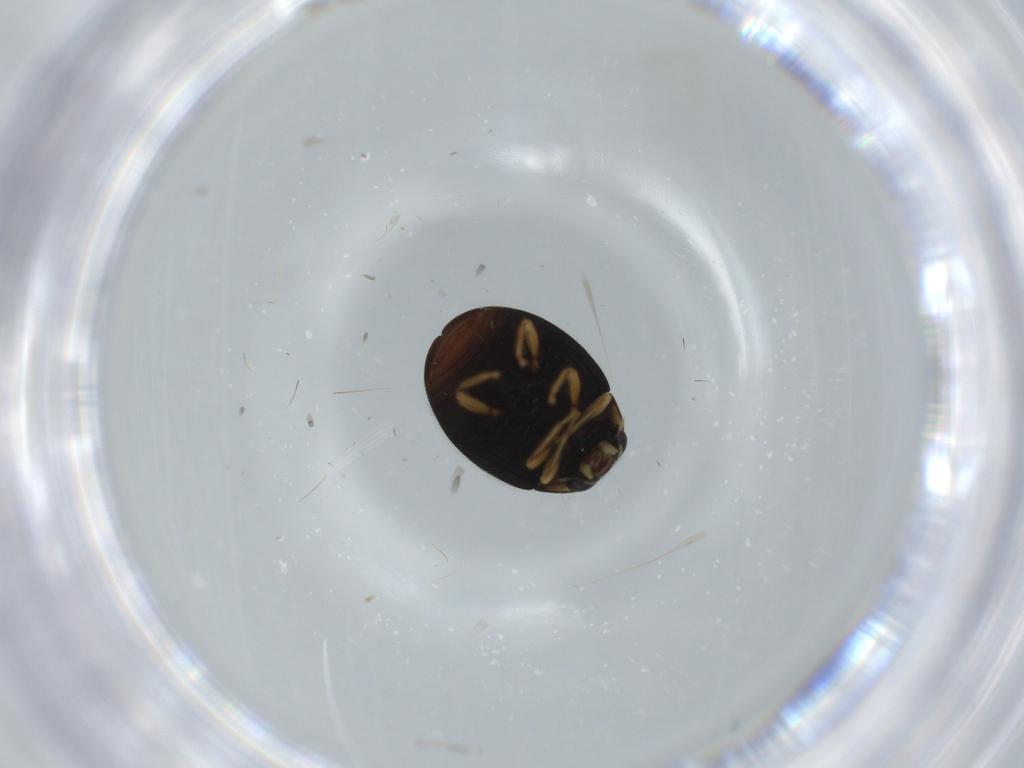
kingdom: Animalia
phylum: Arthropoda
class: Insecta
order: Coleoptera
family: Coccinellidae
